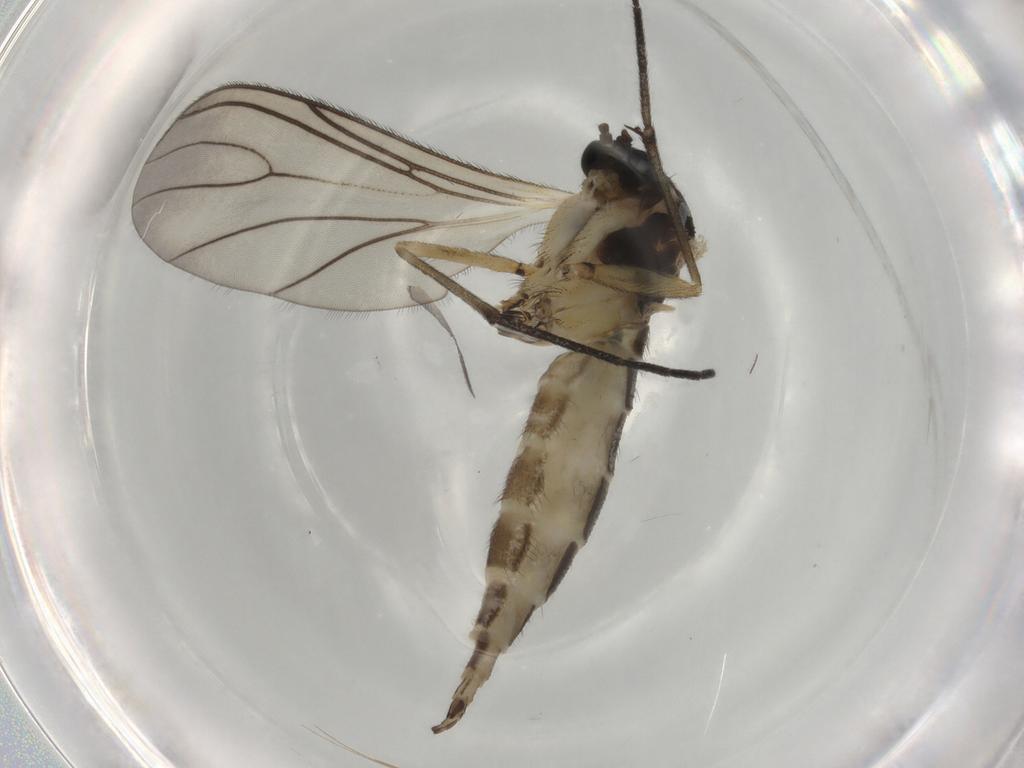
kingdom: Animalia
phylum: Arthropoda
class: Insecta
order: Diptera
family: Sciaridae
